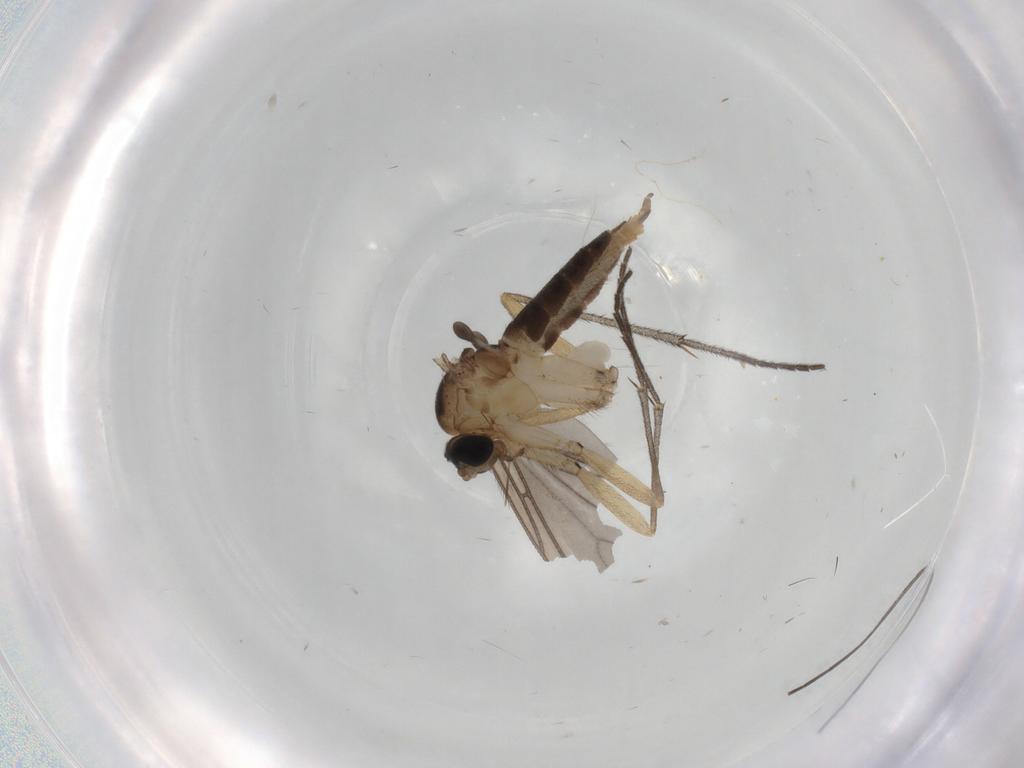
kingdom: Animalia
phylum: Arthropoda
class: Insecta
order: Diptera
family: Sciaridae
